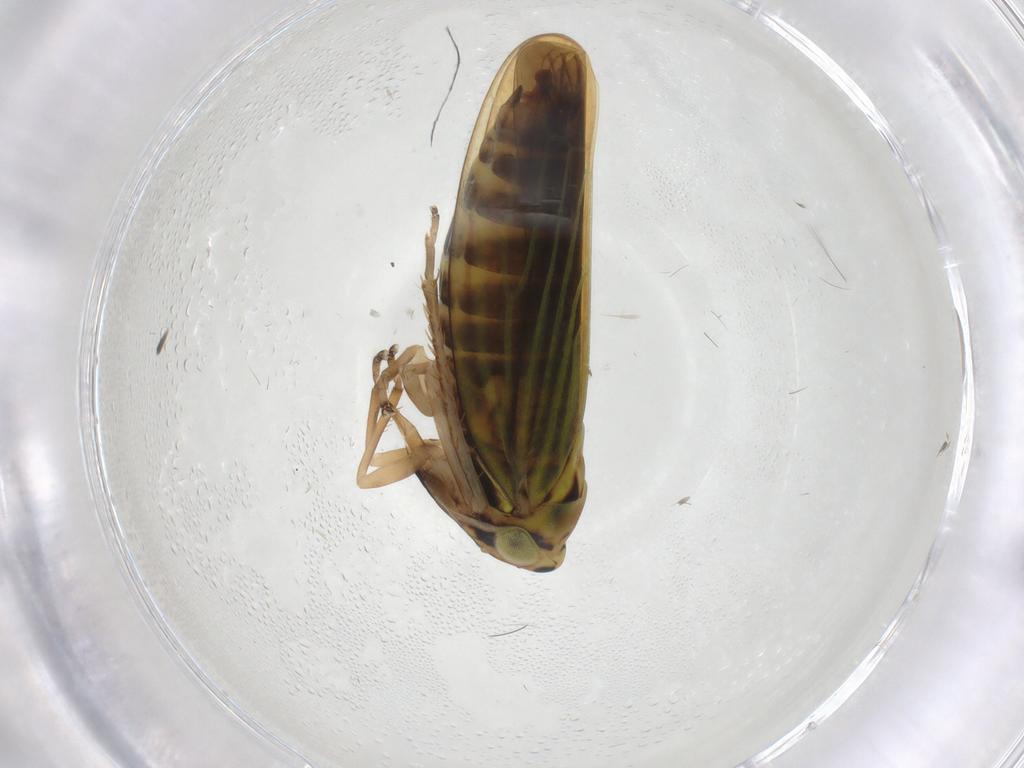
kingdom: Animalia
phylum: Arthropoda
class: Insecta
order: Hemiptera
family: Cicadellidae
